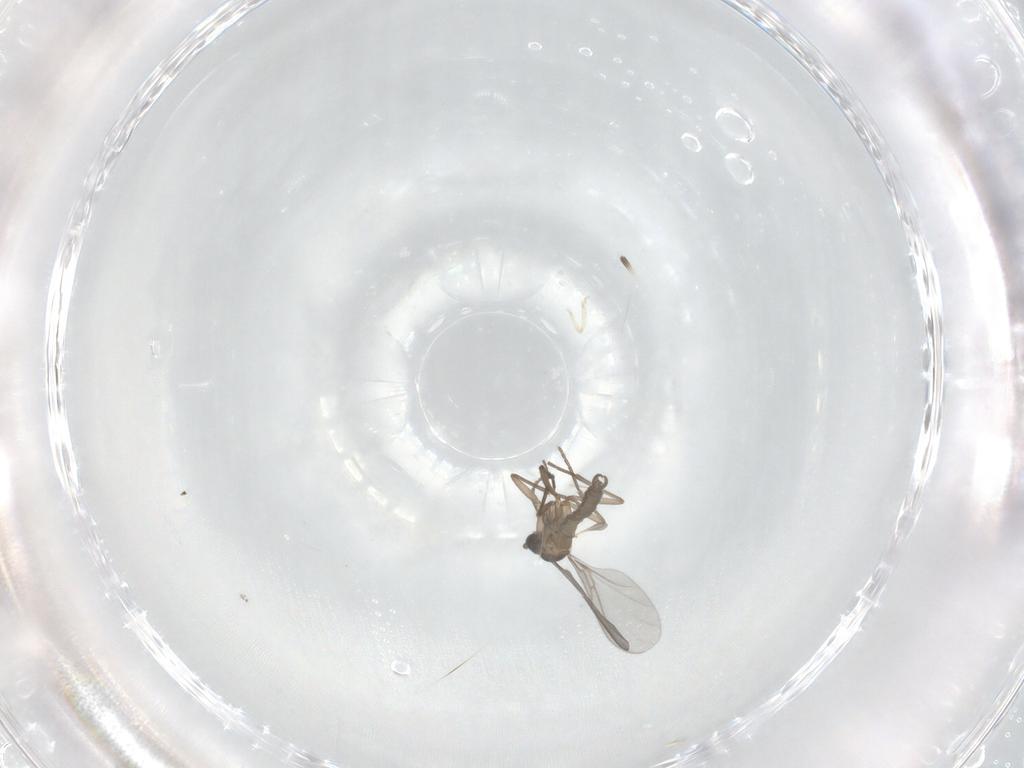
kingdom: Animalia
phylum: Arthropoda
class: Insecta
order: Diptera
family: Sciaridae
